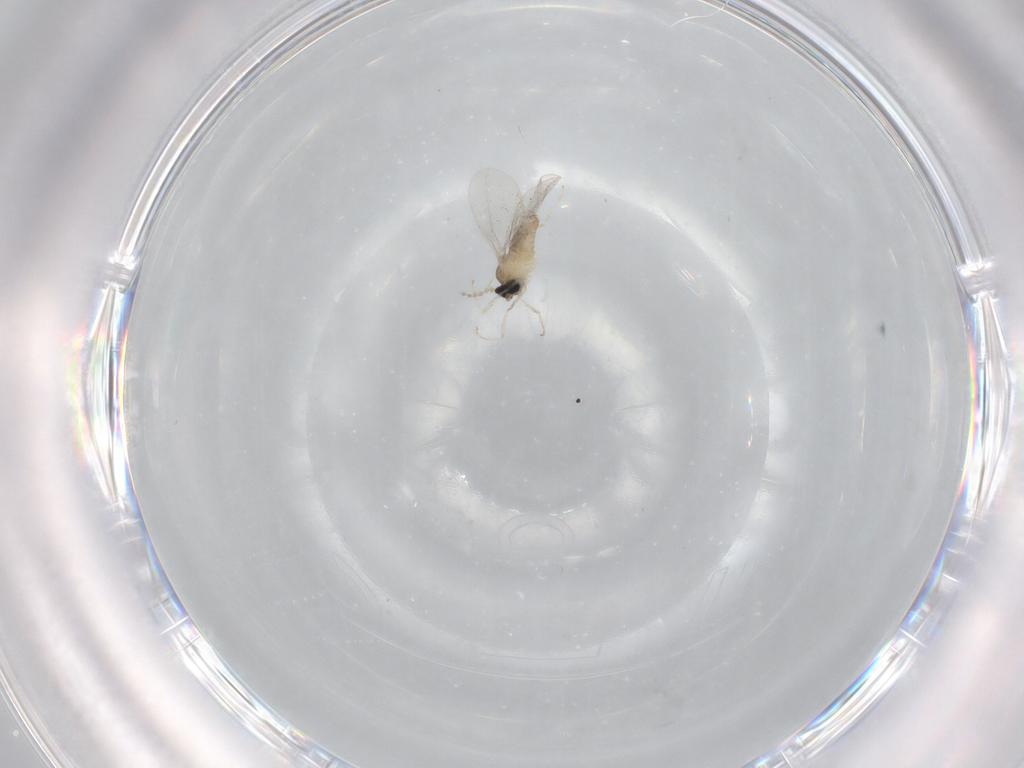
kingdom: Animalia
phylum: Arthropoda
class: Insecta
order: Diptera
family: Cecidomyiidae
